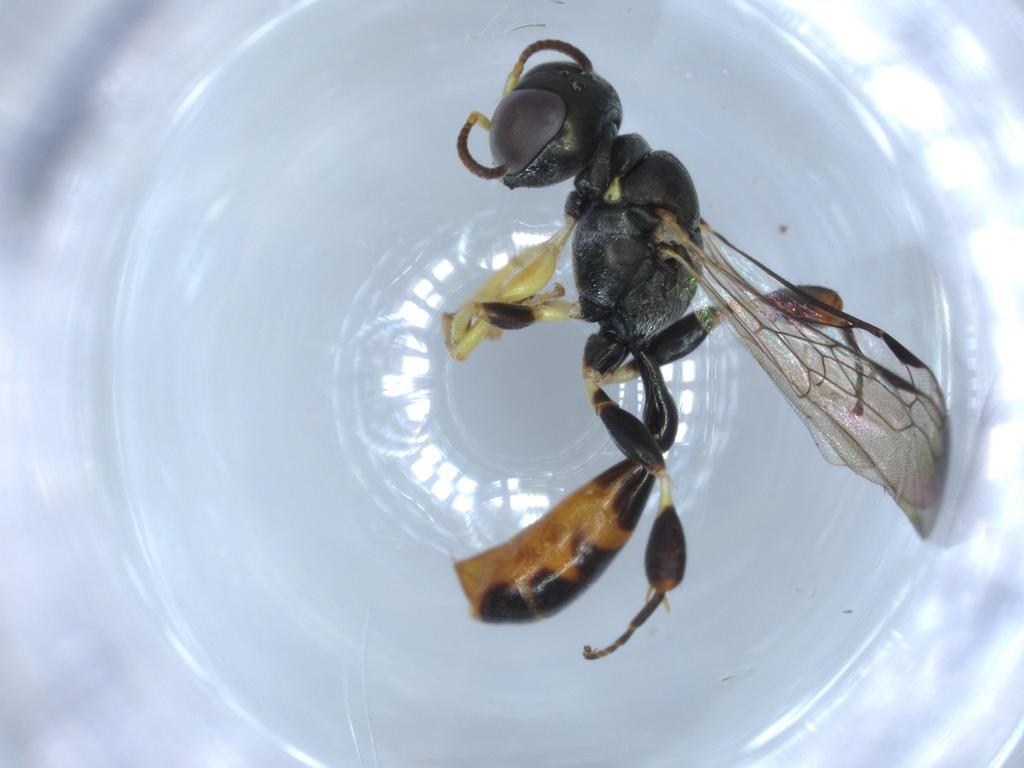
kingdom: Animalia
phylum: Arthropoda
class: Insecta
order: Hymenoptera
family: Crabronidae
